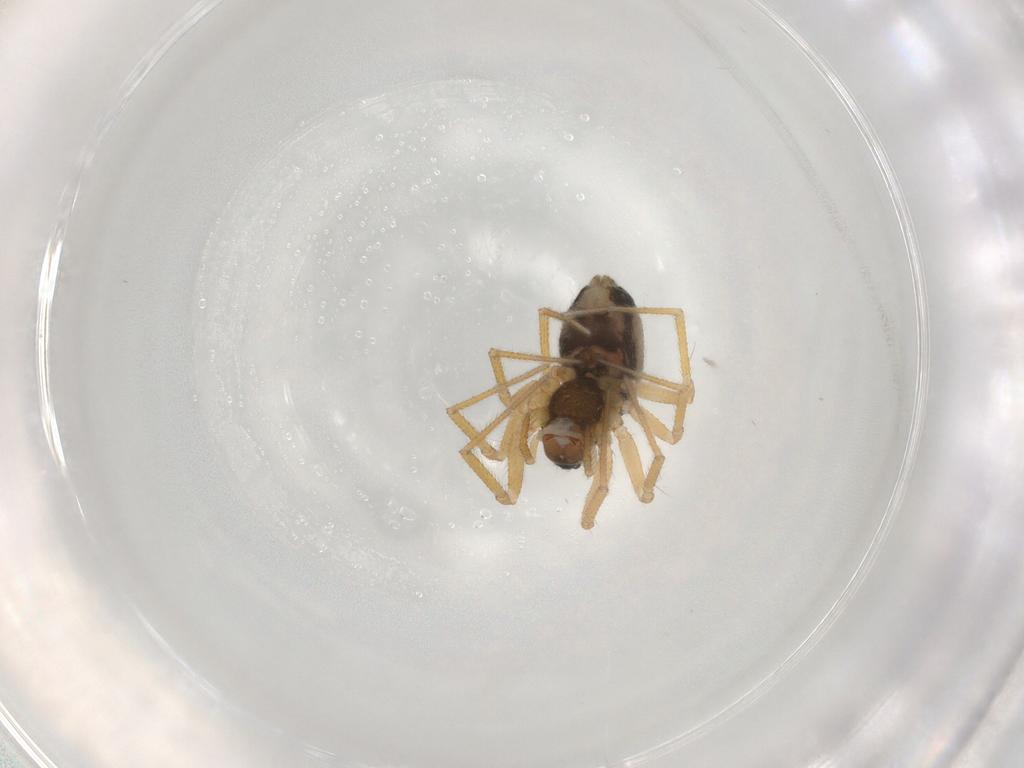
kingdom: Animalia
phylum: Arthropoda
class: Arachnida
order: Araneae
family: Linyphiidae
